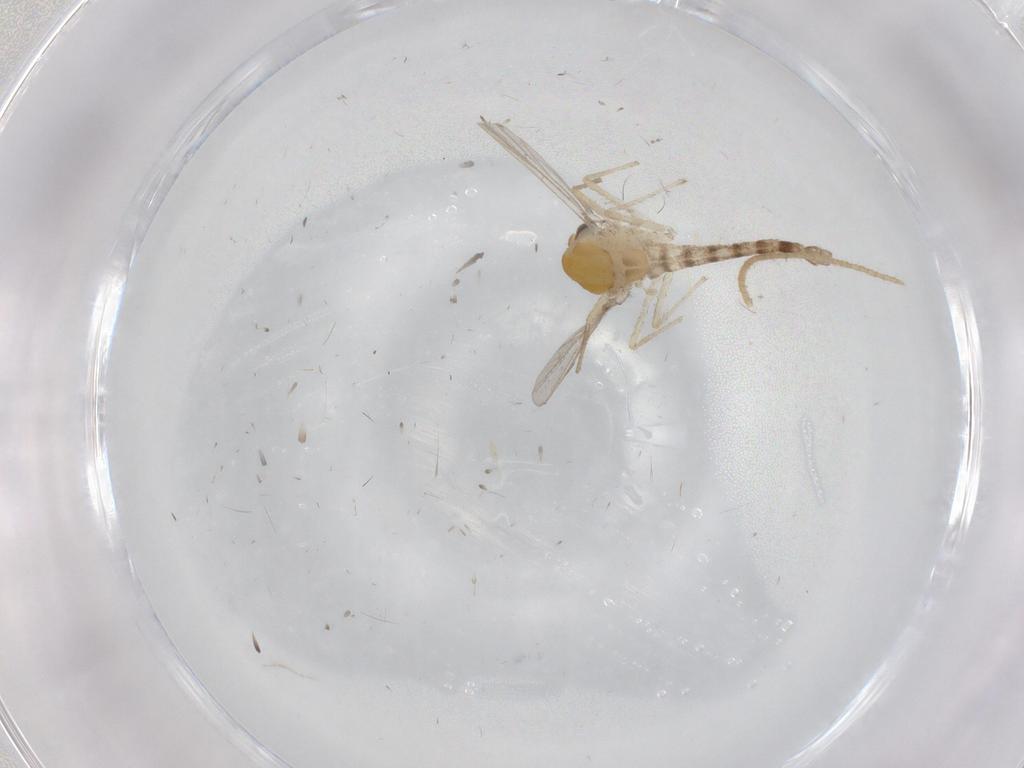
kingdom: Animalia
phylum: Arthropoda
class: Insecta
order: Diptera
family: Chironomidae
